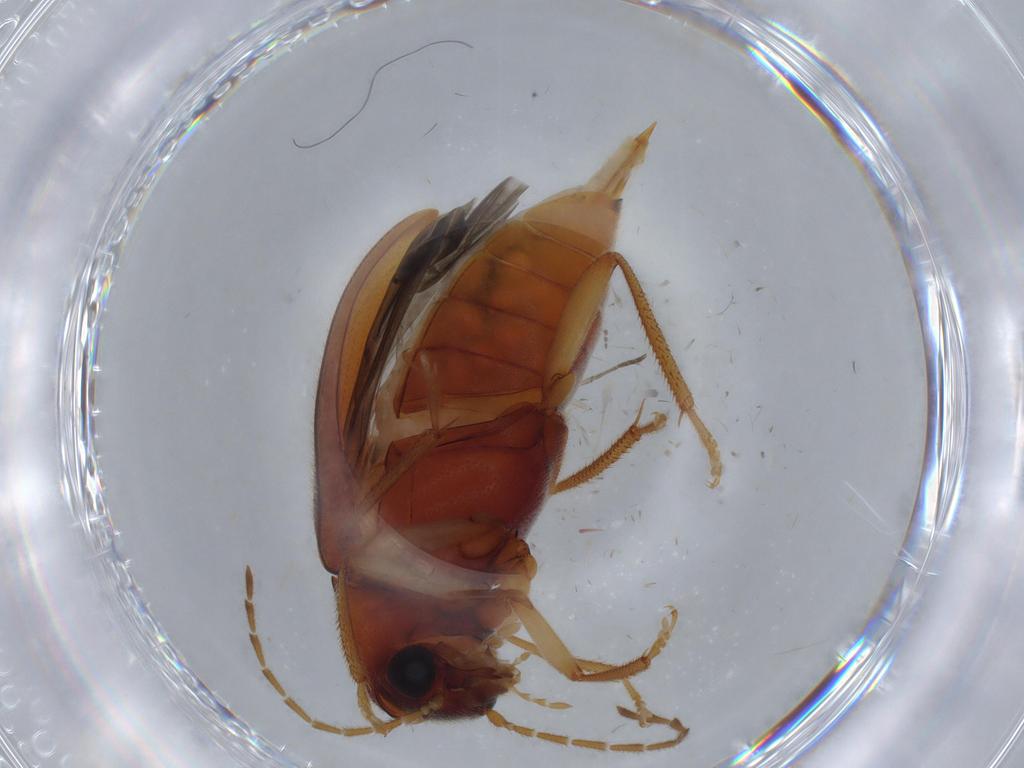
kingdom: Animalia
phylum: Arthropoda
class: Insecta
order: Coleoptera
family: Ptilodactylidae
